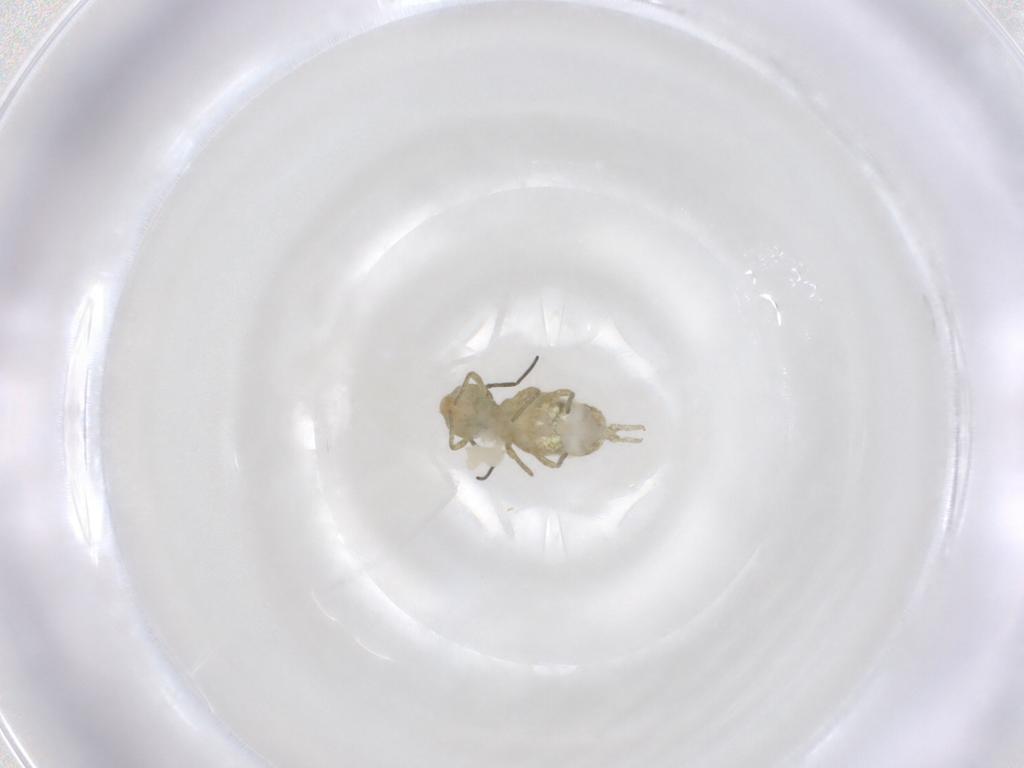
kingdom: Animalia
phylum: Arthropoda
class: Collembola
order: Symphypleona
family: Sminthuridae
